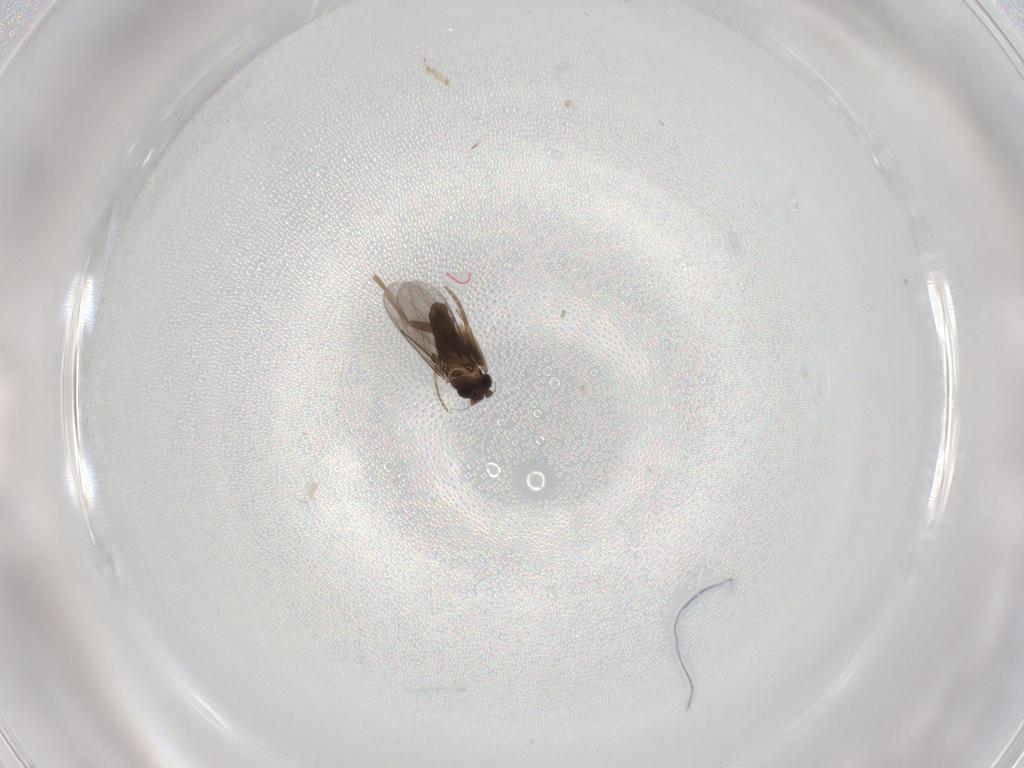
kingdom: Animalia
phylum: Arthropoda
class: Insecta
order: Diptera
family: Cecidomyiidae
